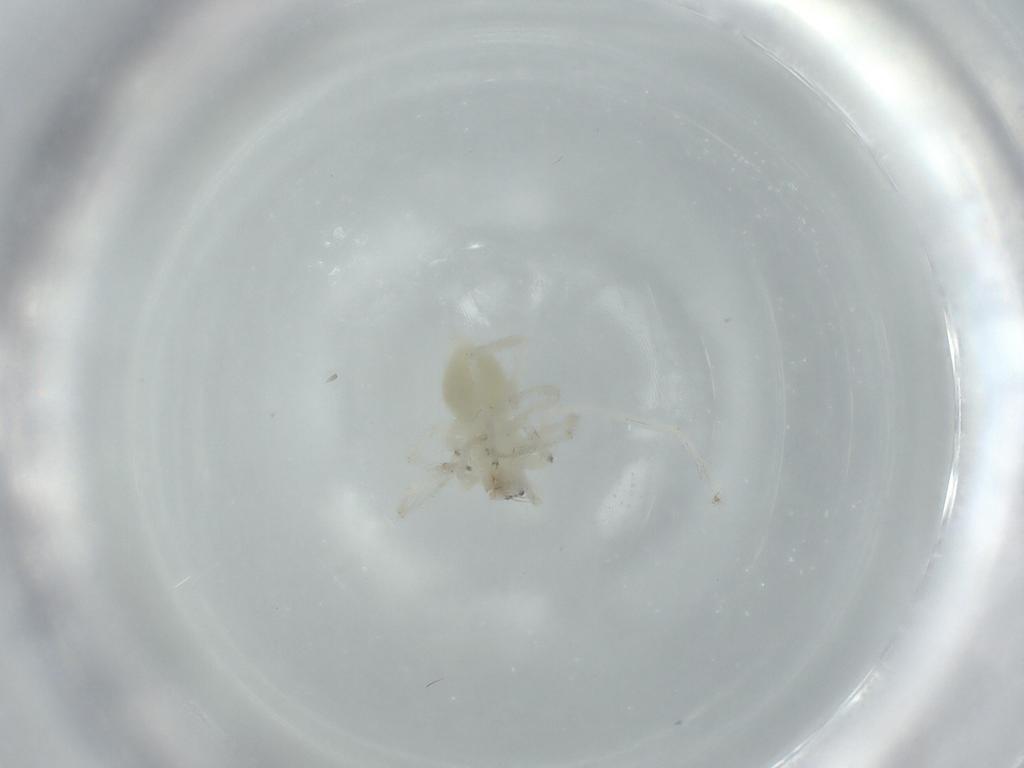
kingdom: Animalia
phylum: Arthropoda
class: Arachnida
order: Araneae
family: Anyphaenidae
